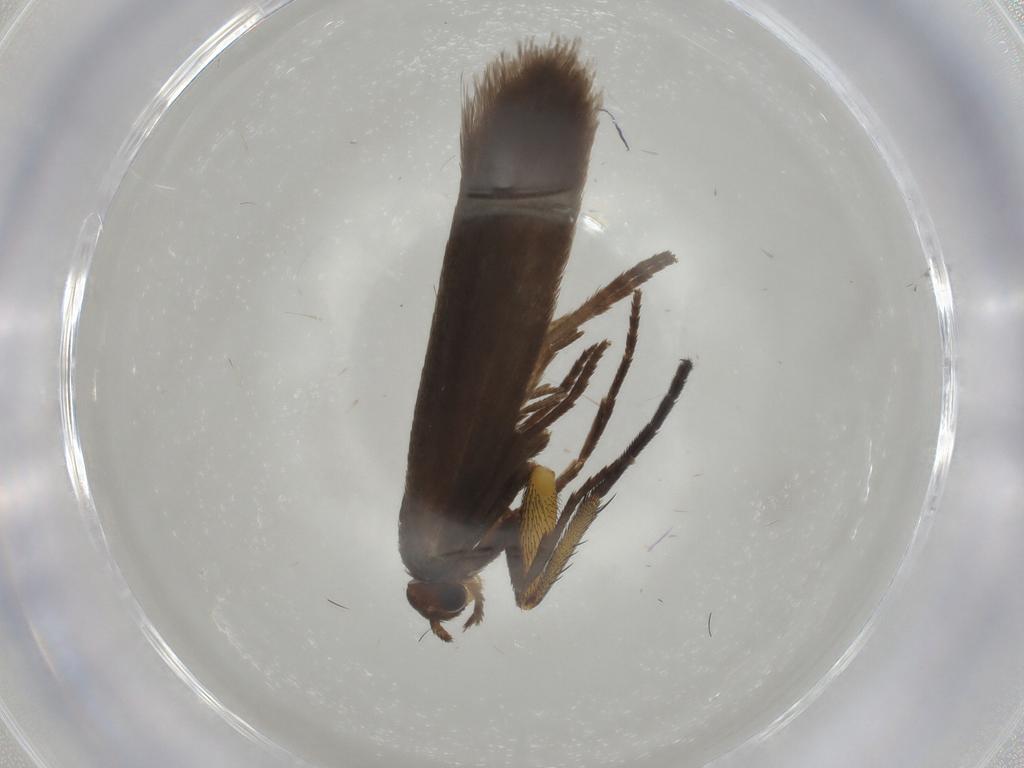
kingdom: Animalia
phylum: Arthropoda
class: Insecta
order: Lepidoptera
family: Limacodidae
